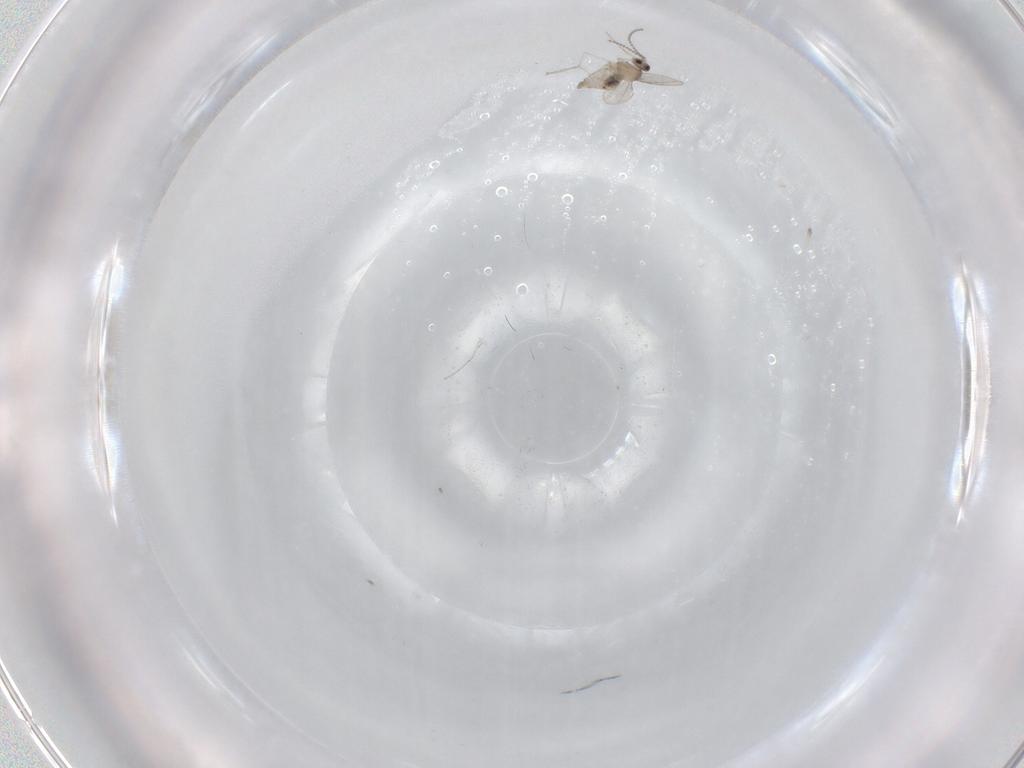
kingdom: Animalia
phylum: Arthropoda
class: Insecta
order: Diptera
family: Cecidomyiidae
